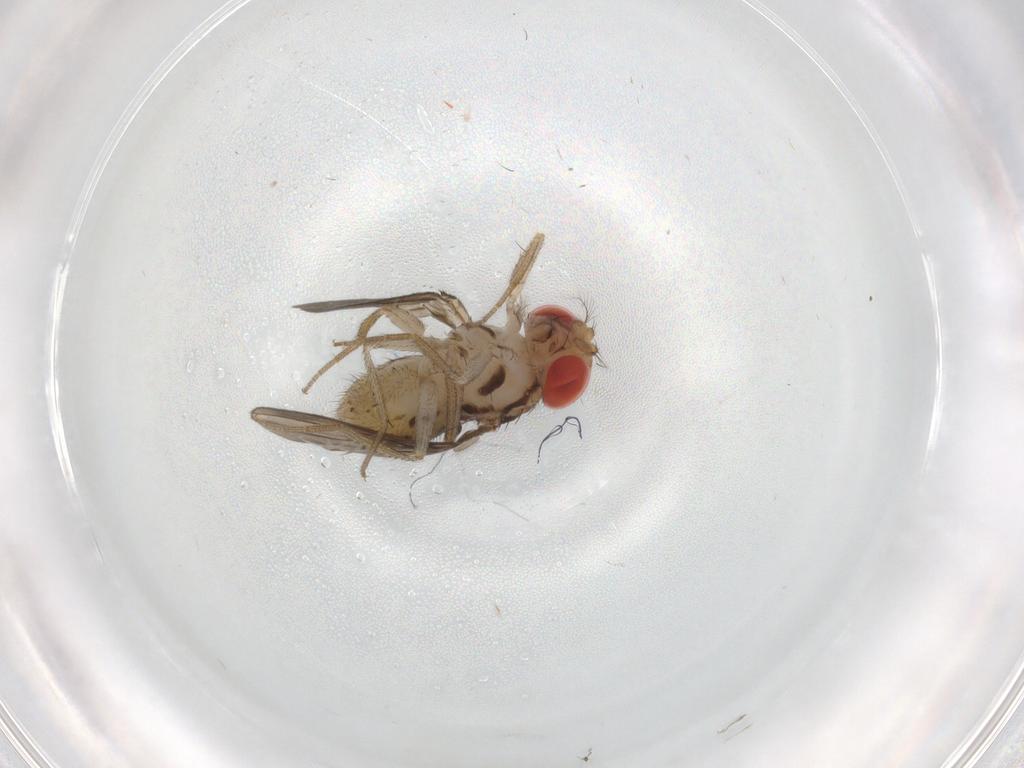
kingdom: Animalia
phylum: Arthropoda
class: Insecta
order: Diptera
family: Drosophilidae
